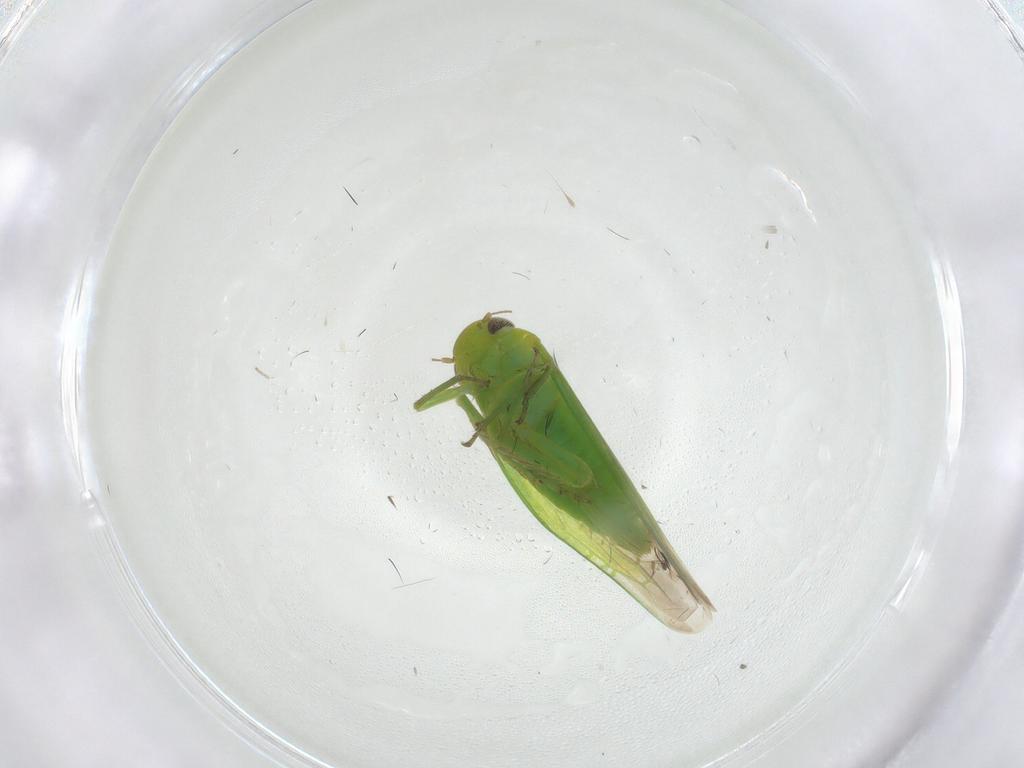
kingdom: Animalia
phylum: Arthropoda
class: Insecta
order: Hemiptera
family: Cicadellidae
